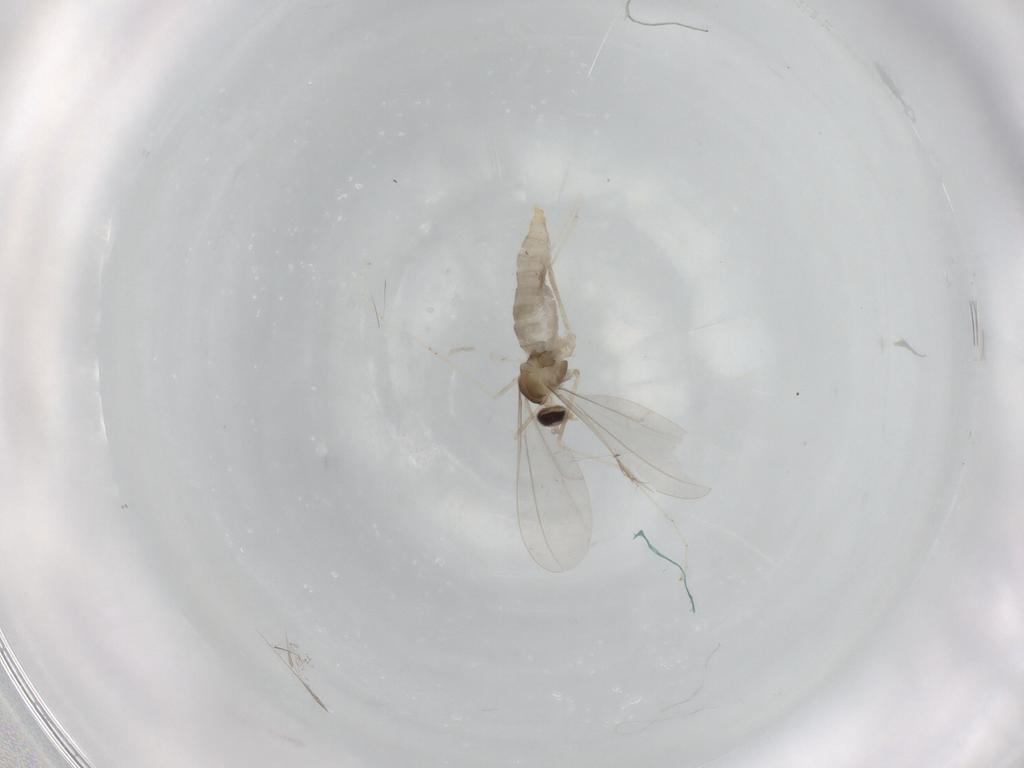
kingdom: Animalia
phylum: Arthropoda
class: Insecta
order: Diptera
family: Cecidomyiidae
